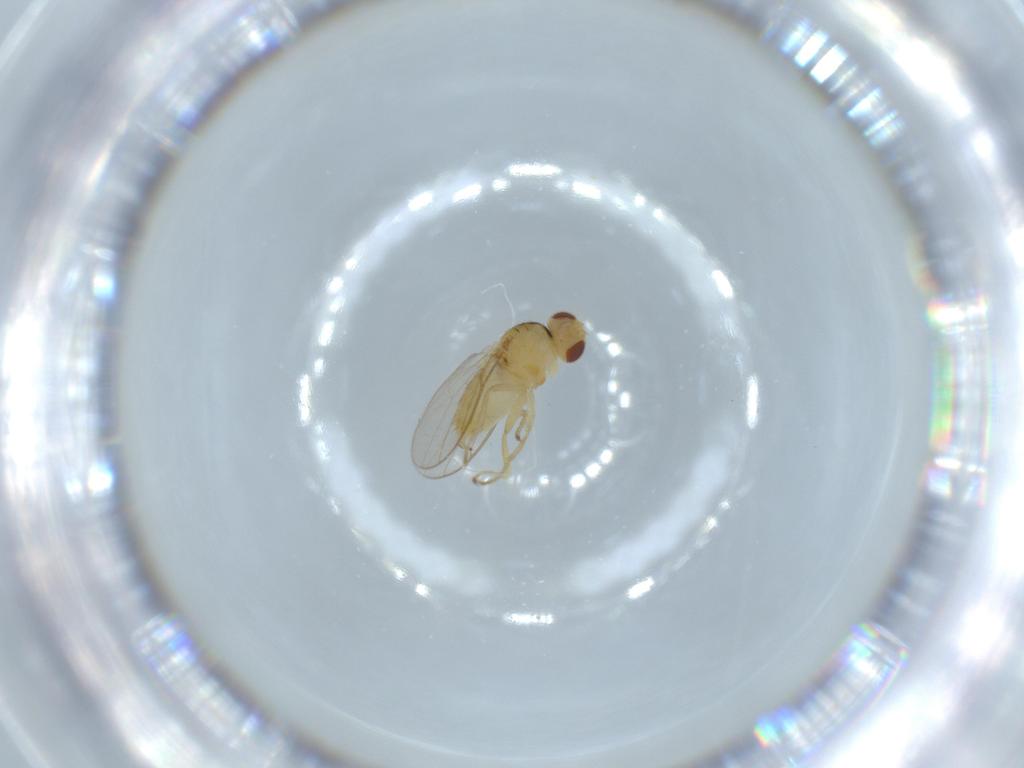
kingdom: Animalia
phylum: Arthropoda
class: Insecta
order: Diptera
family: Chloropidae
